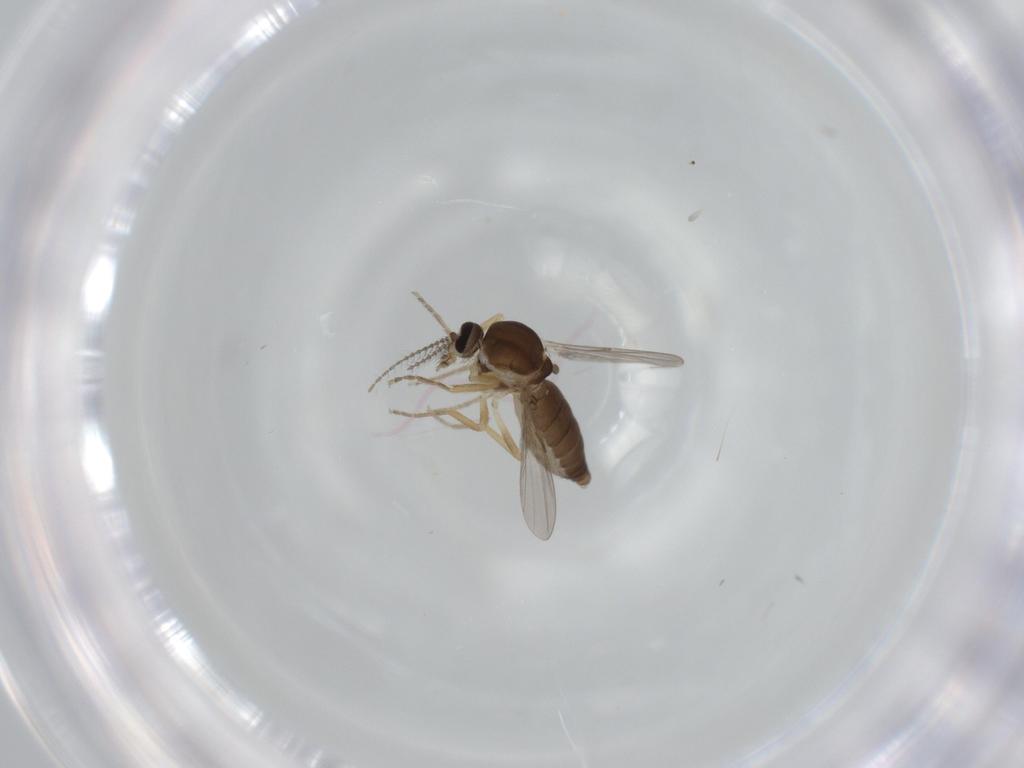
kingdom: Animalia
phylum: Arthropoda
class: Insecta
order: Diptera
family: Ceratopogonidae
